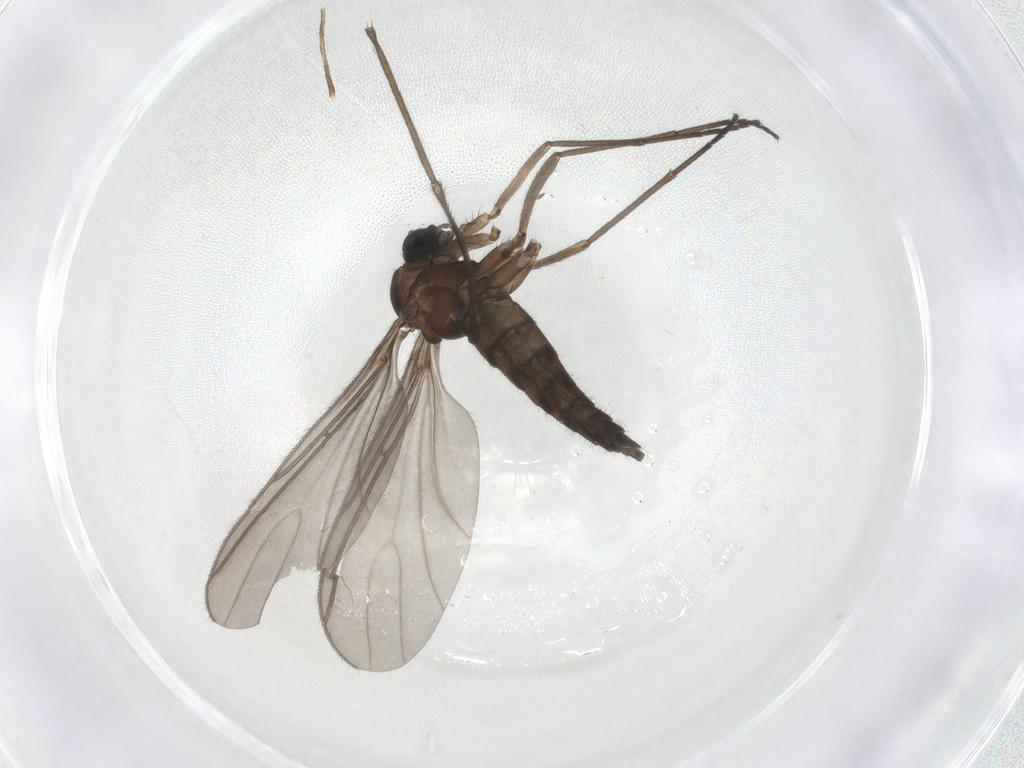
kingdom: Animalia
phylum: Arthropoda
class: Insecta
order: Diptera
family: Sciaridae
